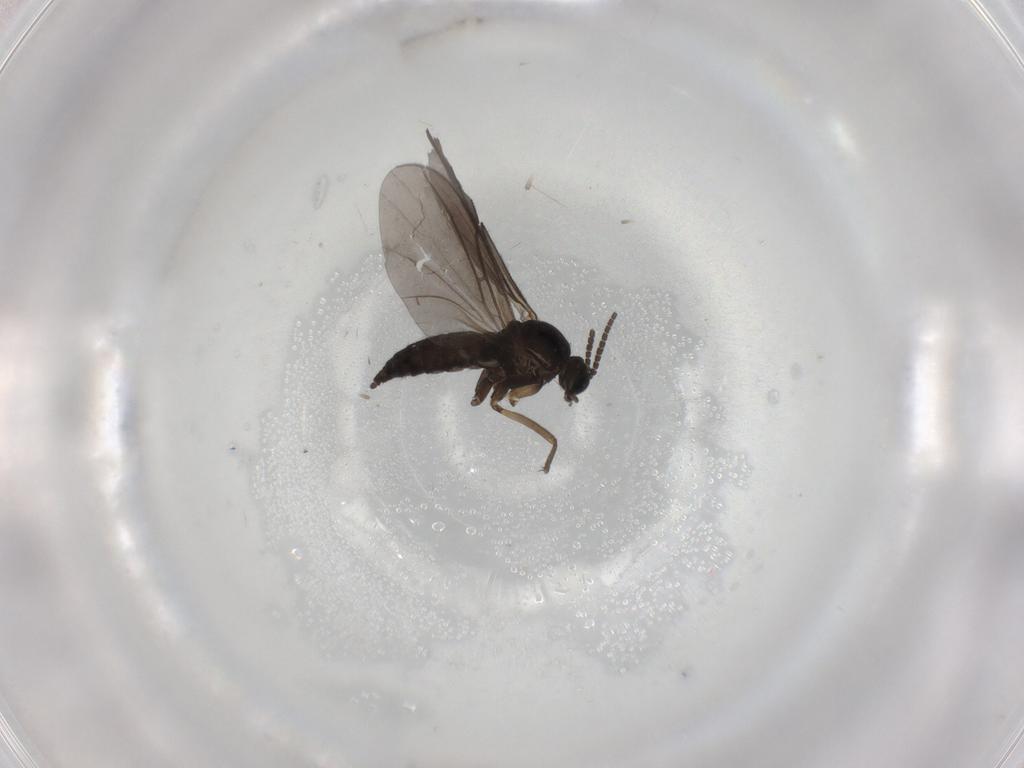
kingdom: Animalia
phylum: Arthropoda
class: Insecta
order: Diptera
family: Sciaridae
